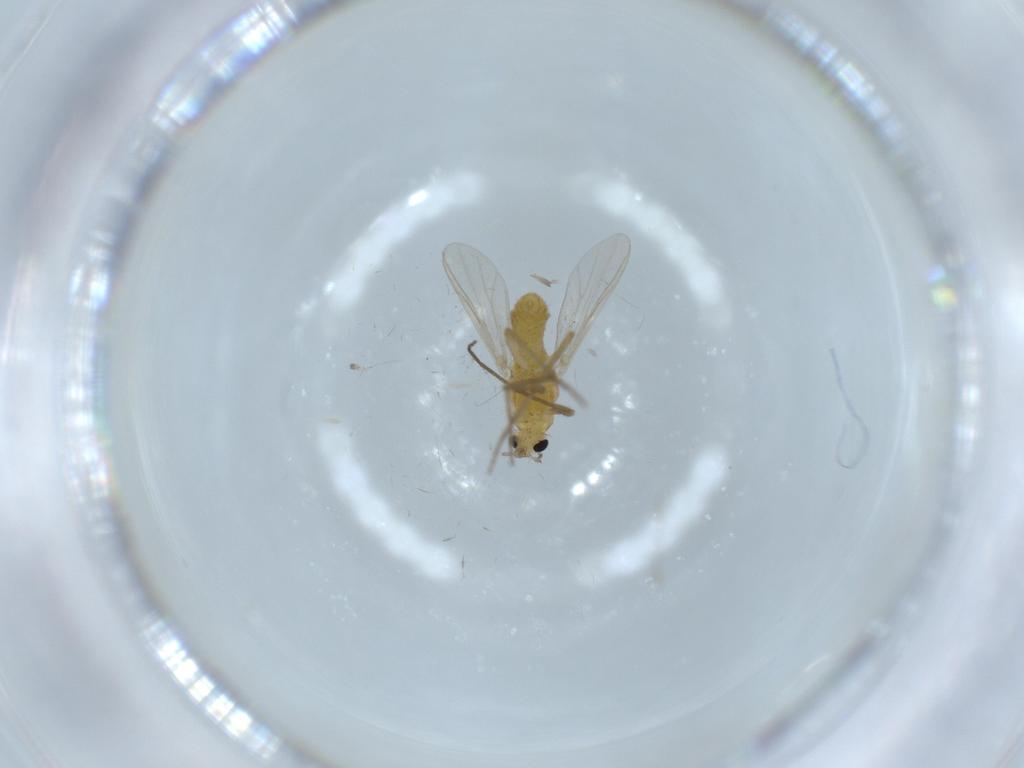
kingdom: Animalia
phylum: Arthropoda
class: Insecta
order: Diptera
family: Chironomidae
